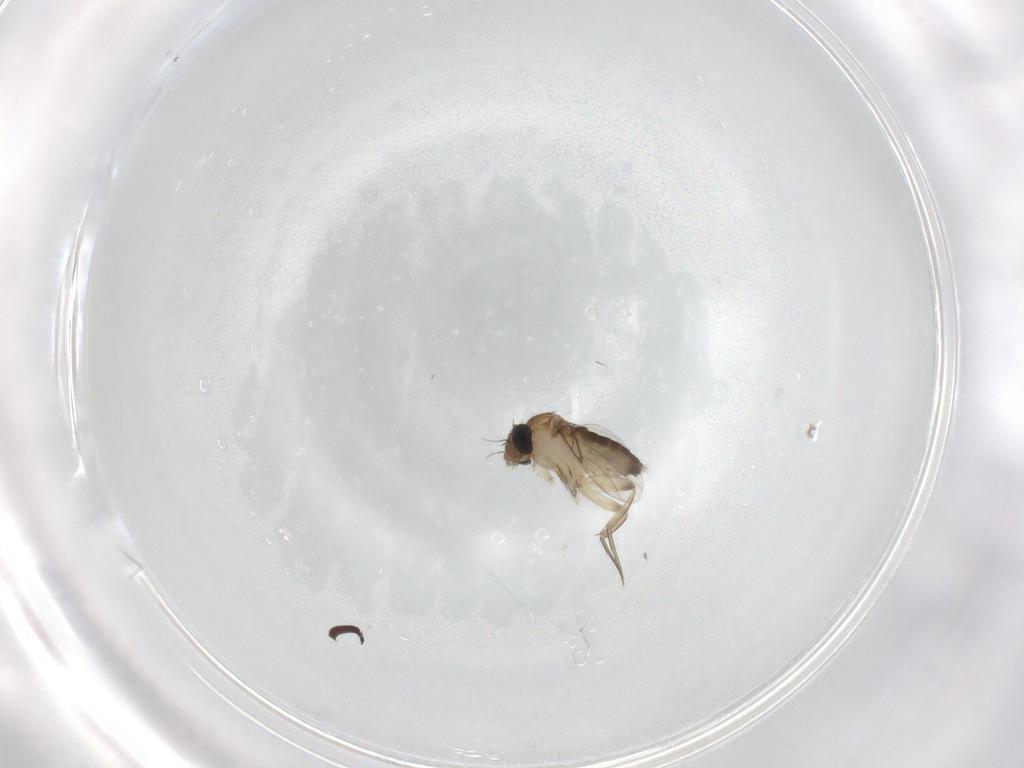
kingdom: Animalia
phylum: Arthropoda
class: Insecta
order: Diptera
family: Phoridae
